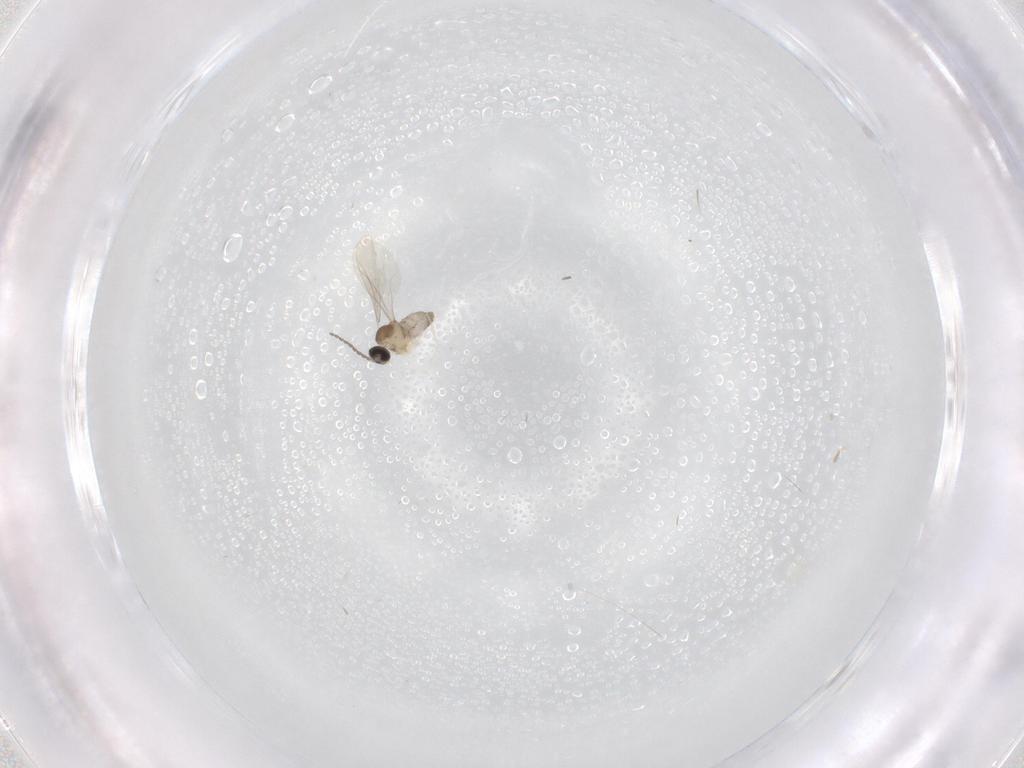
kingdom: Animalia
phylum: Arthropoda
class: Insecta
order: Diptera
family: Cecidomyiidae
